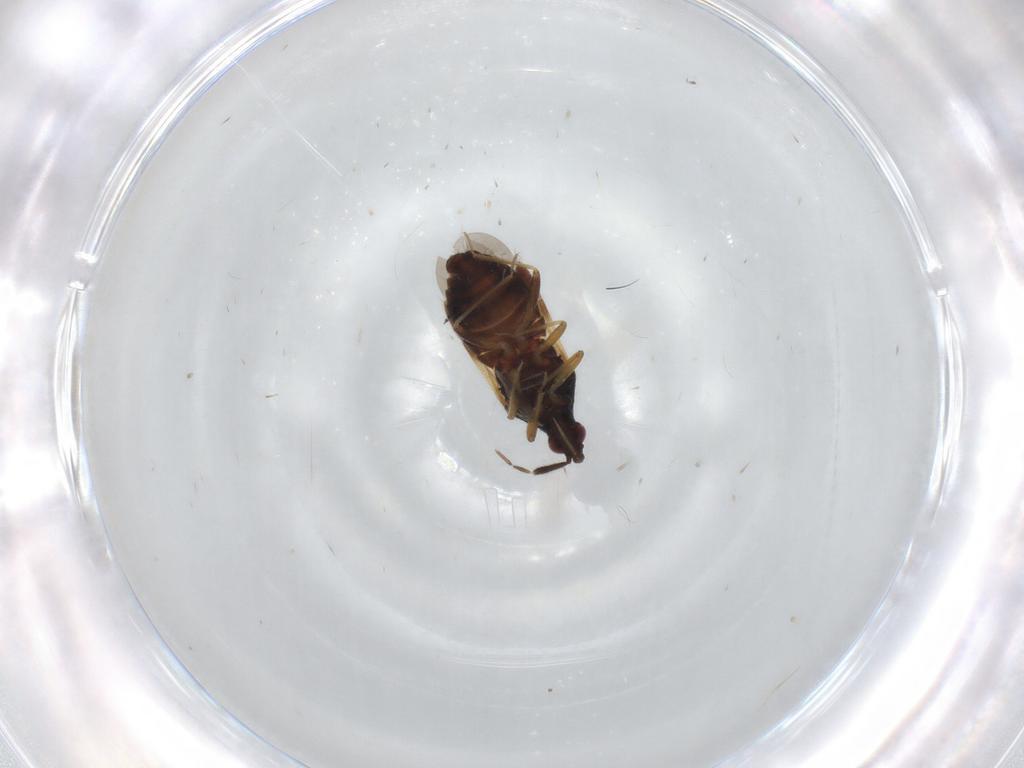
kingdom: Animalia
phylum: Arthropoda
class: Insecta
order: Hemiptera
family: Anthocoridae
